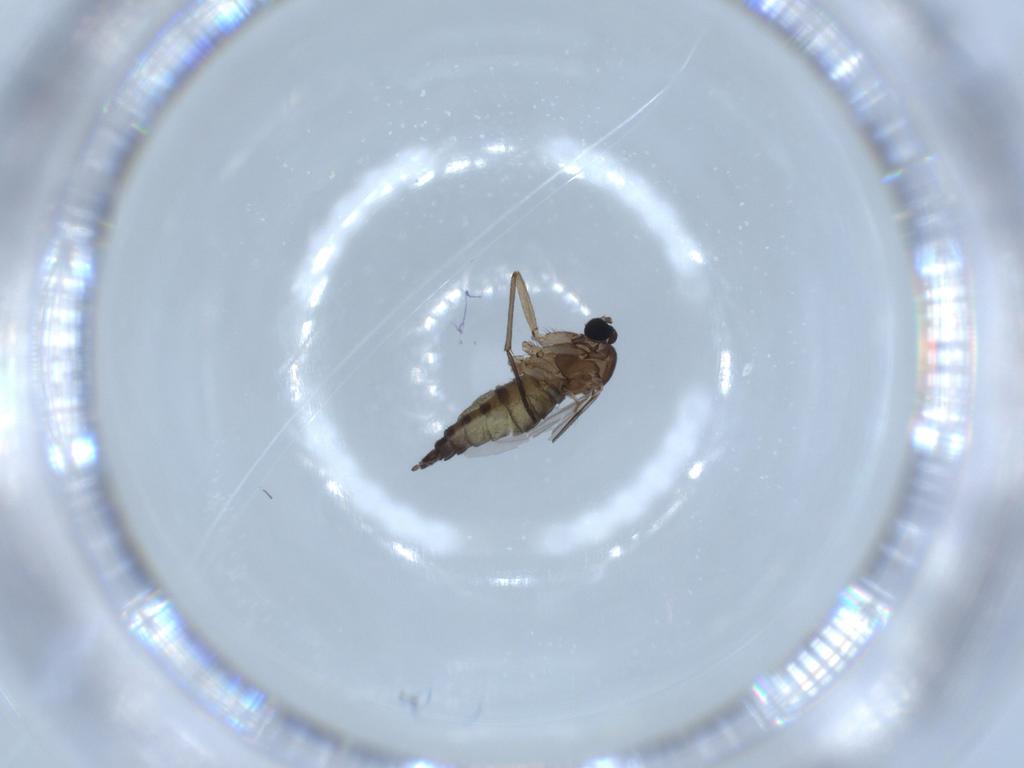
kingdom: Animalia
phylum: Arthropoda
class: Insecta
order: Diptera
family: Sciaridae
